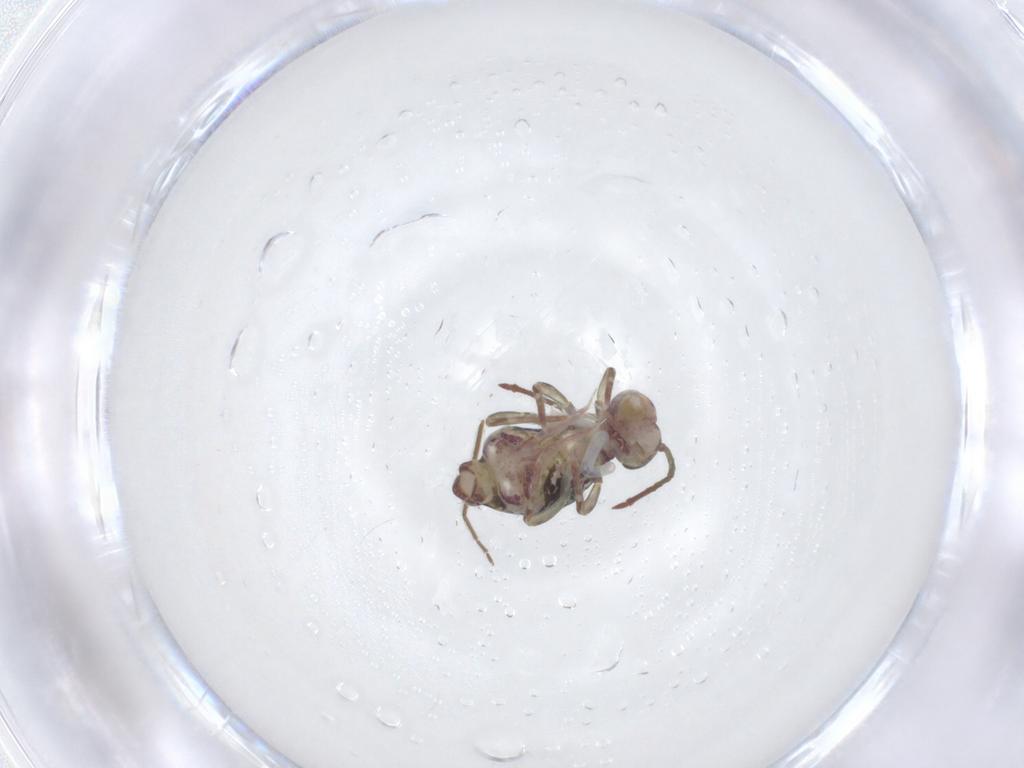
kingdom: Animalia
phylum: Arthropoda
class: Collembola
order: Symphypleona
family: Dicyrtomidae
